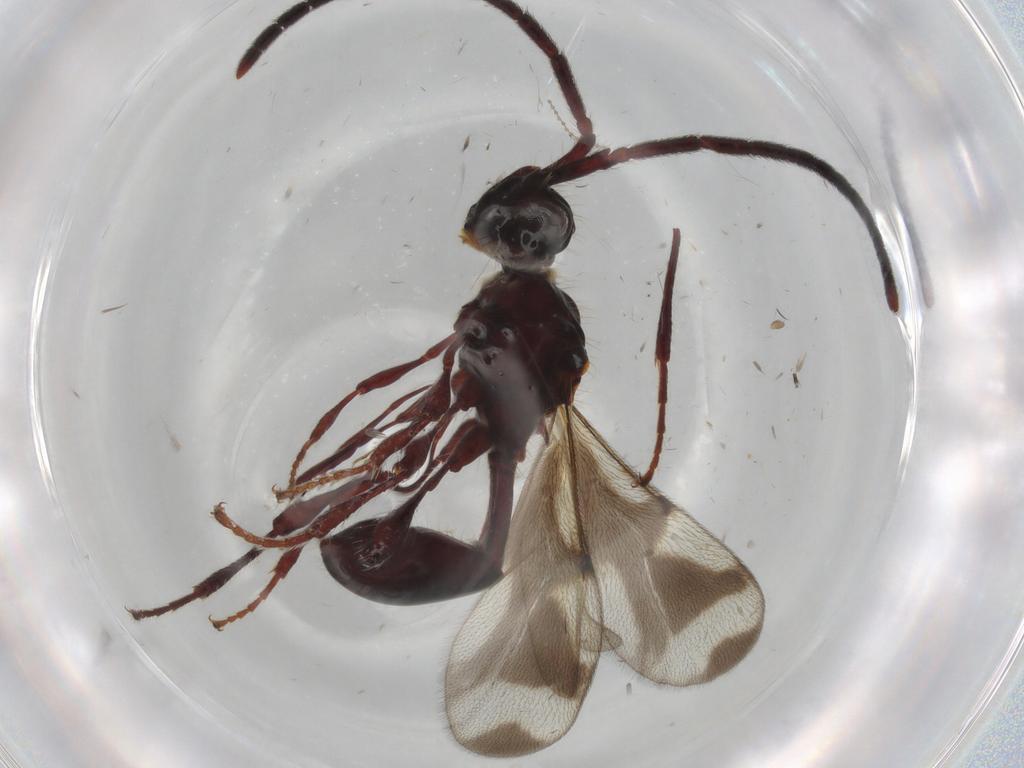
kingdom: Animalia
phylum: Arthropoda
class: Insecta
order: Hymenoptera
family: Diapriidae
